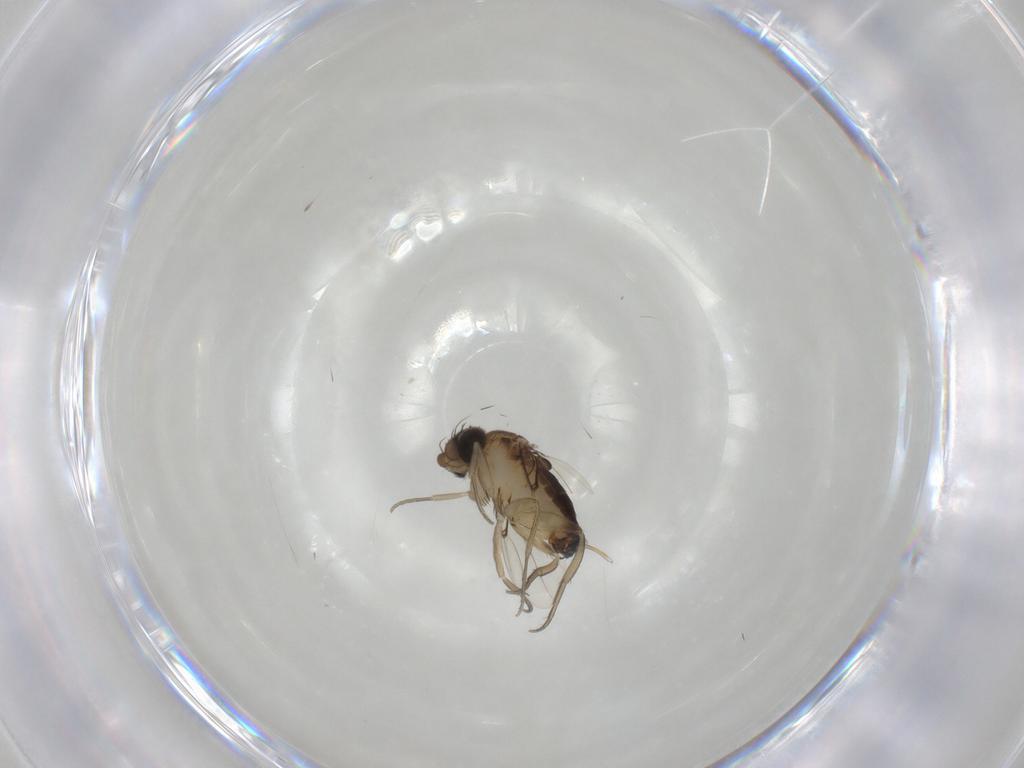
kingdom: Animalia
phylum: Arthropoda
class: Insecta
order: Diptera
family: Phoridae
